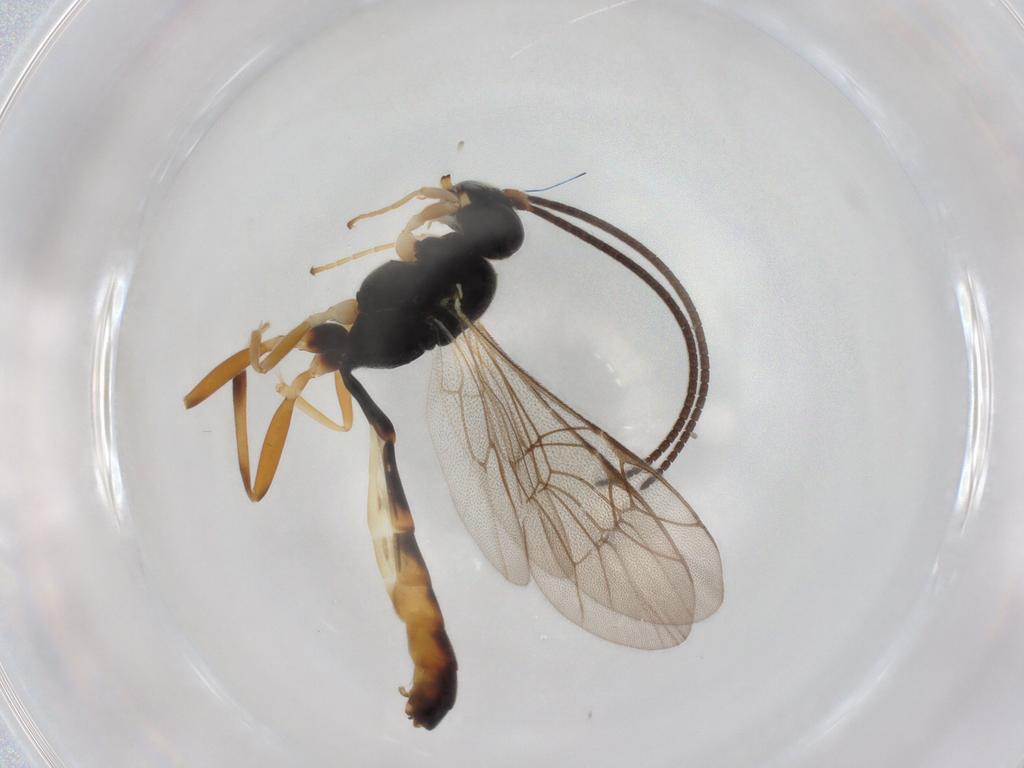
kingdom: Animalia
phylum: Arthropoda
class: Insecta
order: Hymenoptera
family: Ichneumonidae
